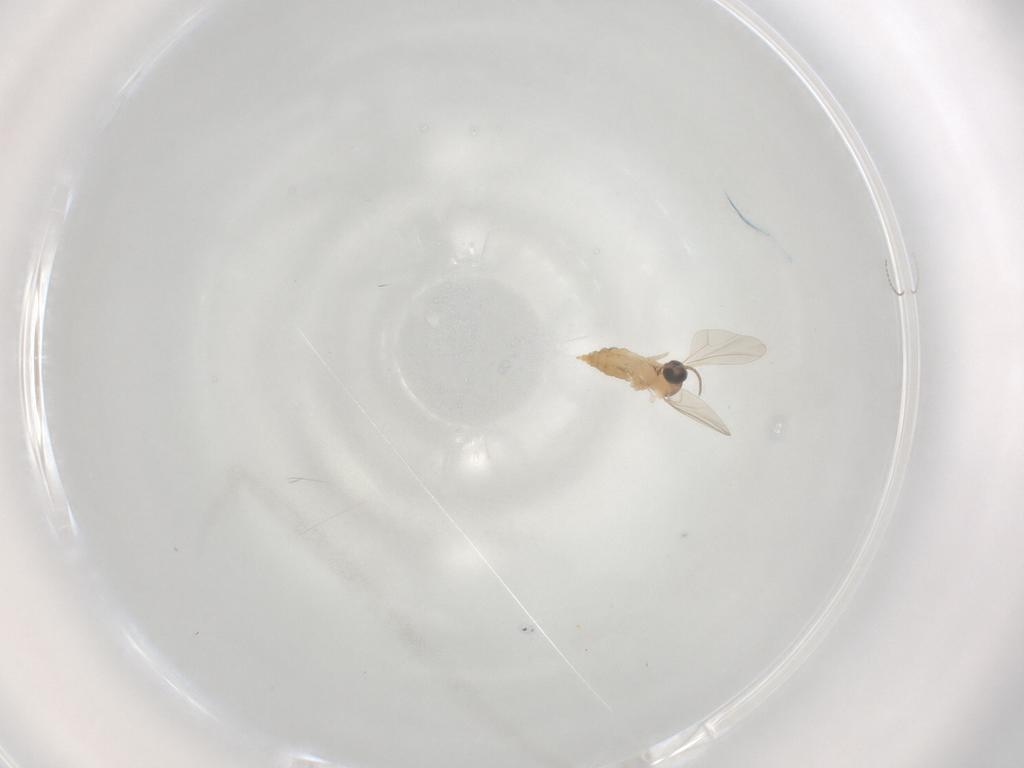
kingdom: Animalia
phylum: Arthropoda
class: Insecta
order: Diptera
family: Cecidomyiidae
